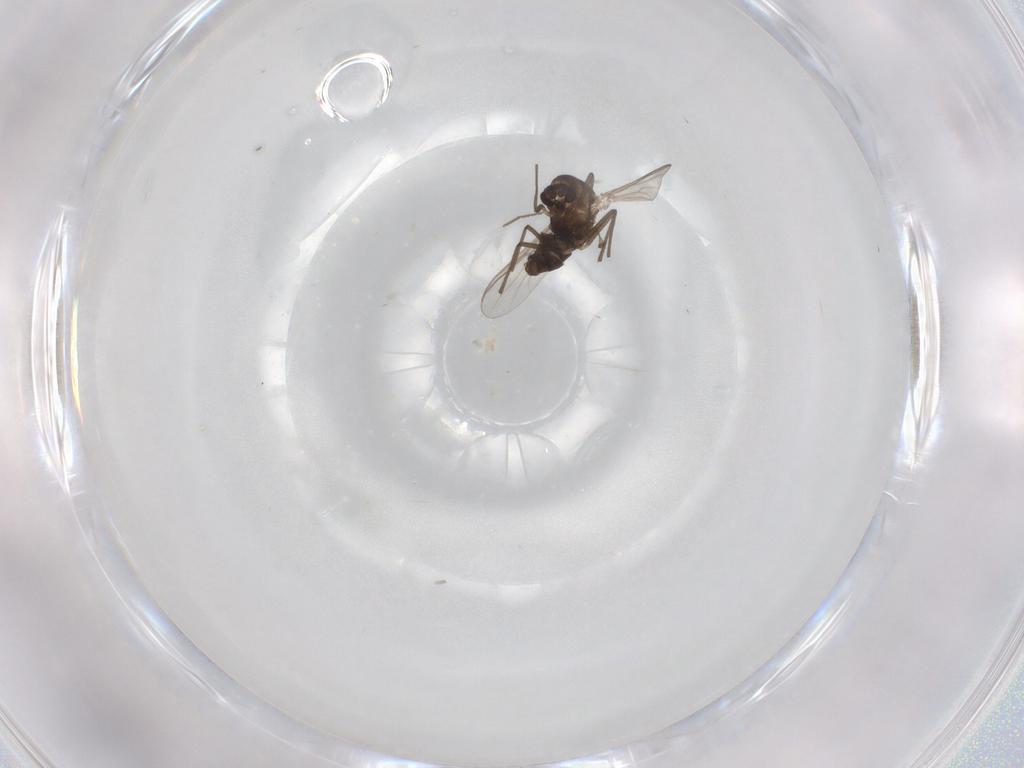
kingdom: Animalia
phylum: Arthropoda
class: Insecta
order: Diptera
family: Chironomidae
